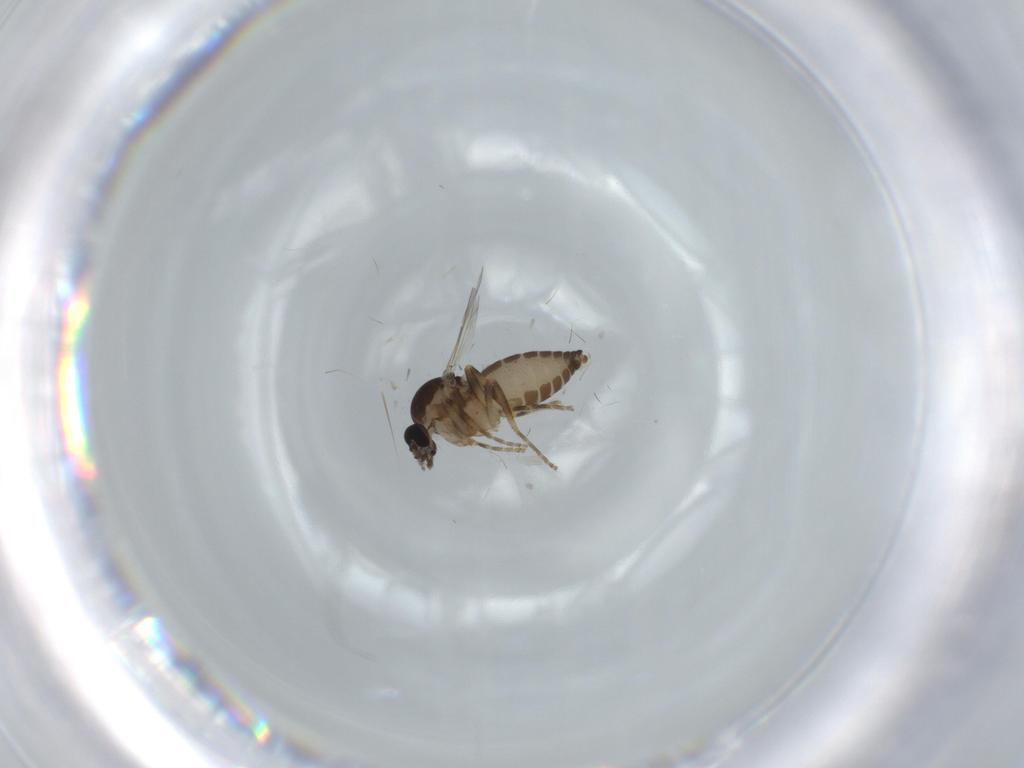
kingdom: Animalia
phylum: Arthropoda
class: Insecta
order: Diptera
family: Ceratopogonidae
